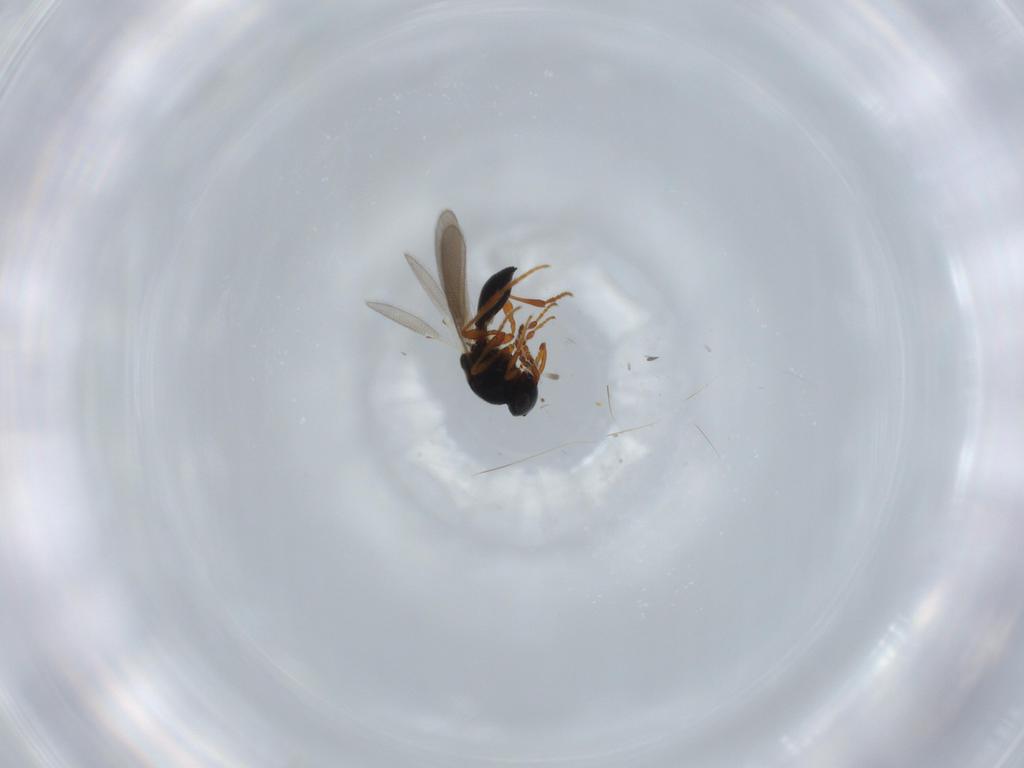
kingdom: Animalia
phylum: Arthropoda
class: Insecta
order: Hymenoptera
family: Platygastridae
